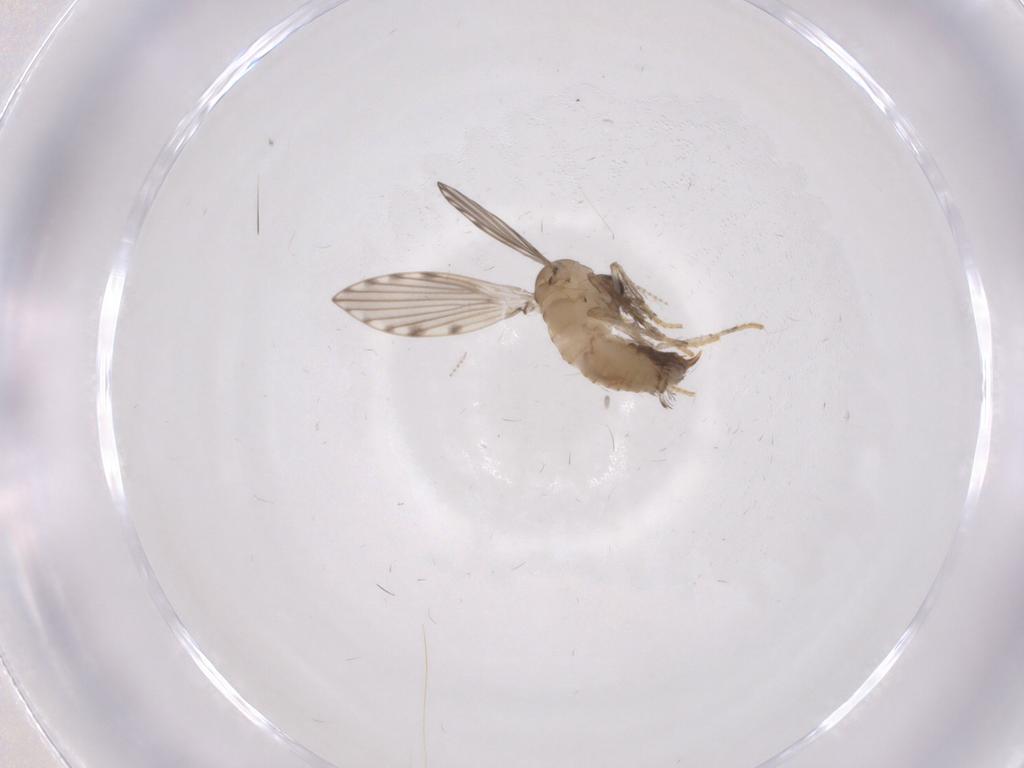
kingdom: Animalia
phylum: Arthropoda
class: Insecta
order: Diptera
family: Psychodidae
